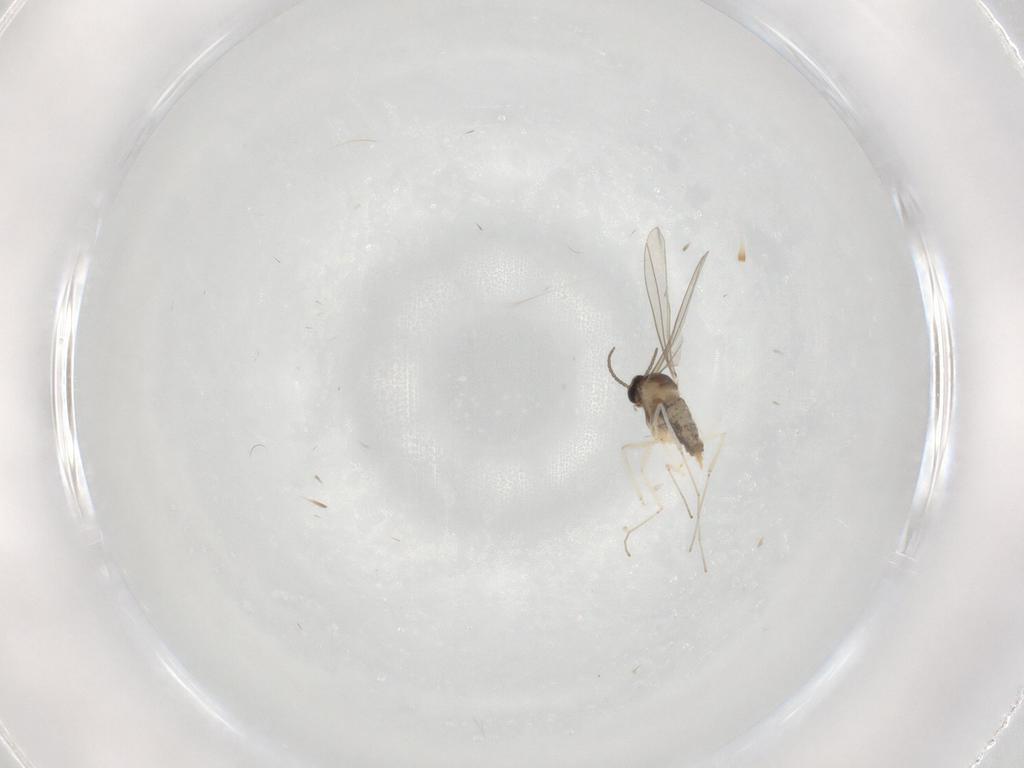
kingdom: Animalia
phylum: Arthropoda
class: Insecta
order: Diptera
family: Cecidomyiidae
